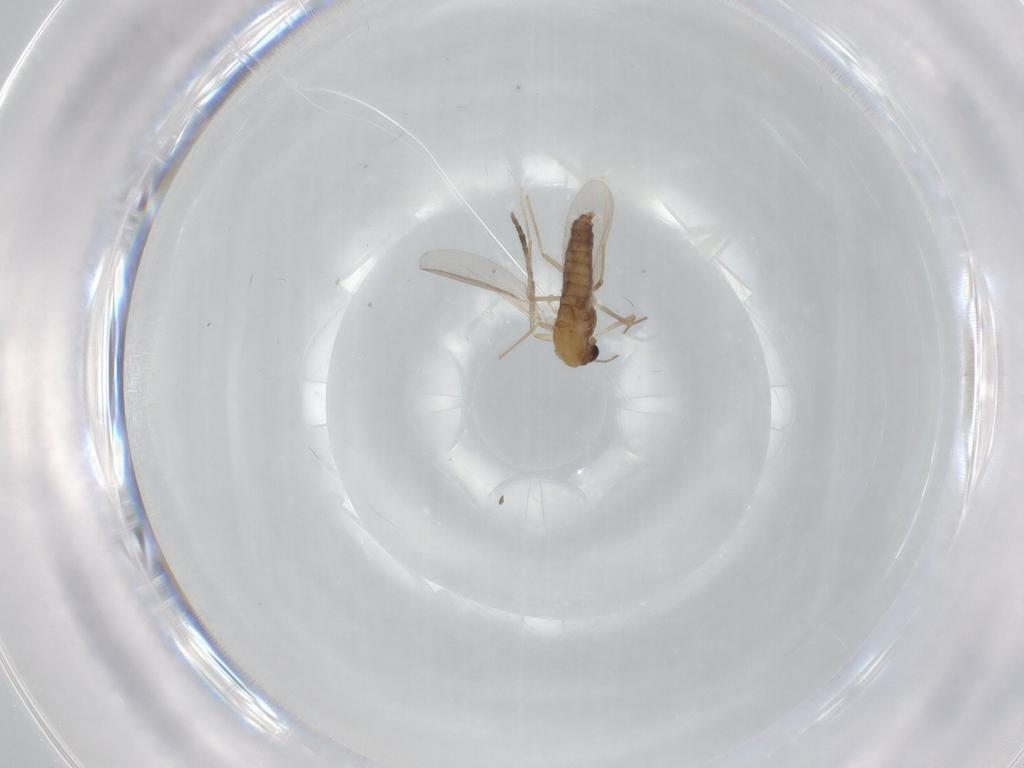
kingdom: Animalia
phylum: Arthropoda
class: Insecta
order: Diptera
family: Chironomidae
